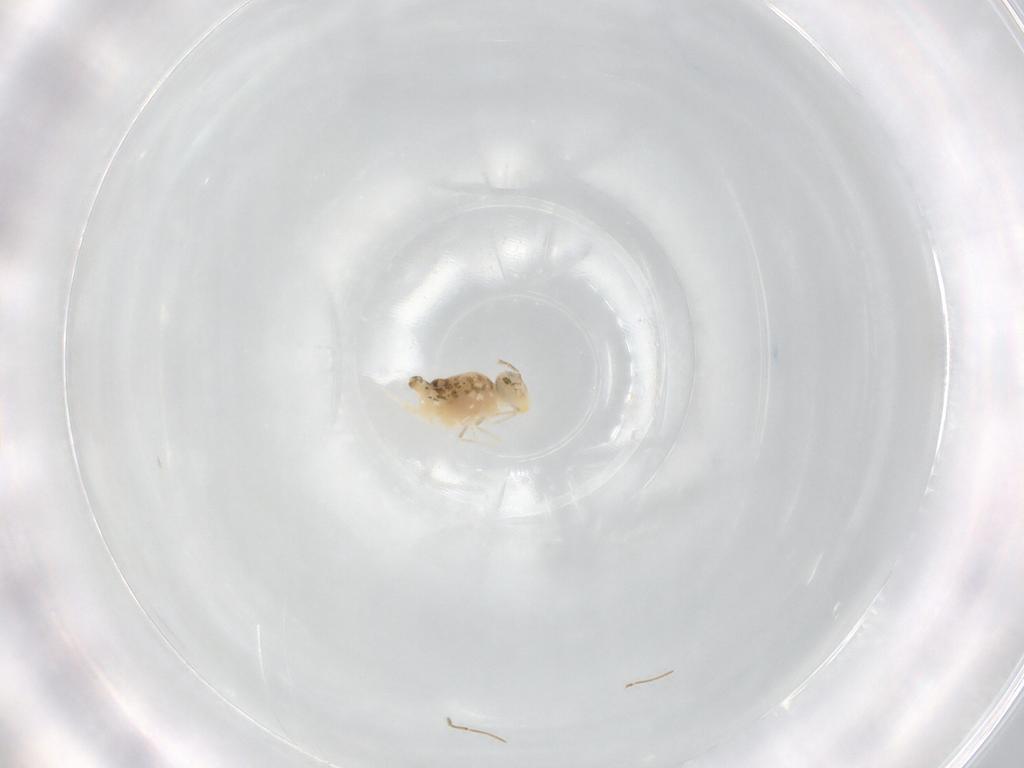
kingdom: Animalia
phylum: Arthropoda
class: Collembola
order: Symphypleona
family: Bourletiellidae
